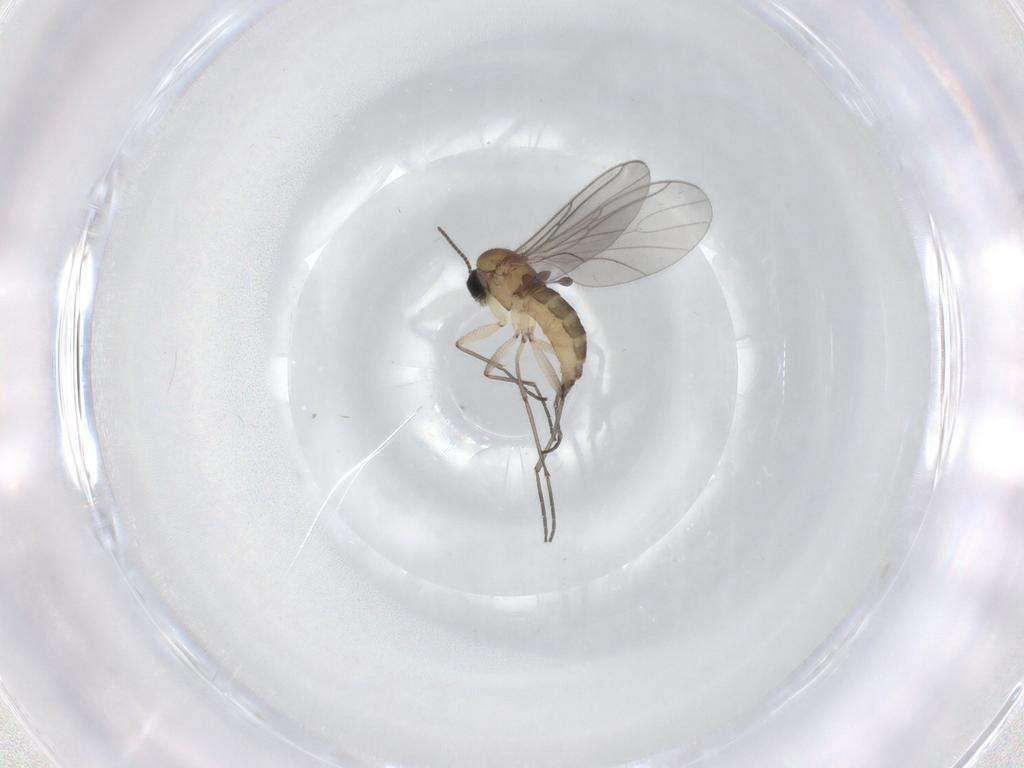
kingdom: Animalia
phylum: Arthropoda
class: Insecta
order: Diptera
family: Sciaridae
